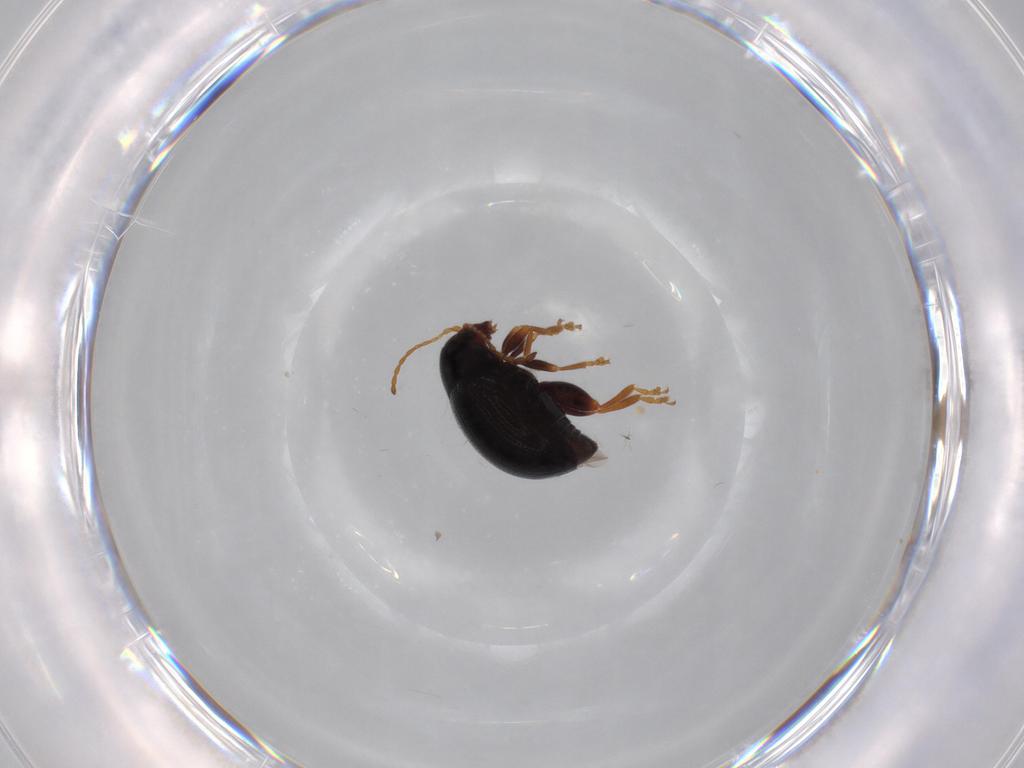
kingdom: Animalia
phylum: Arthropoda
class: Insecta
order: Coleoptera
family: Chrysomelidae
